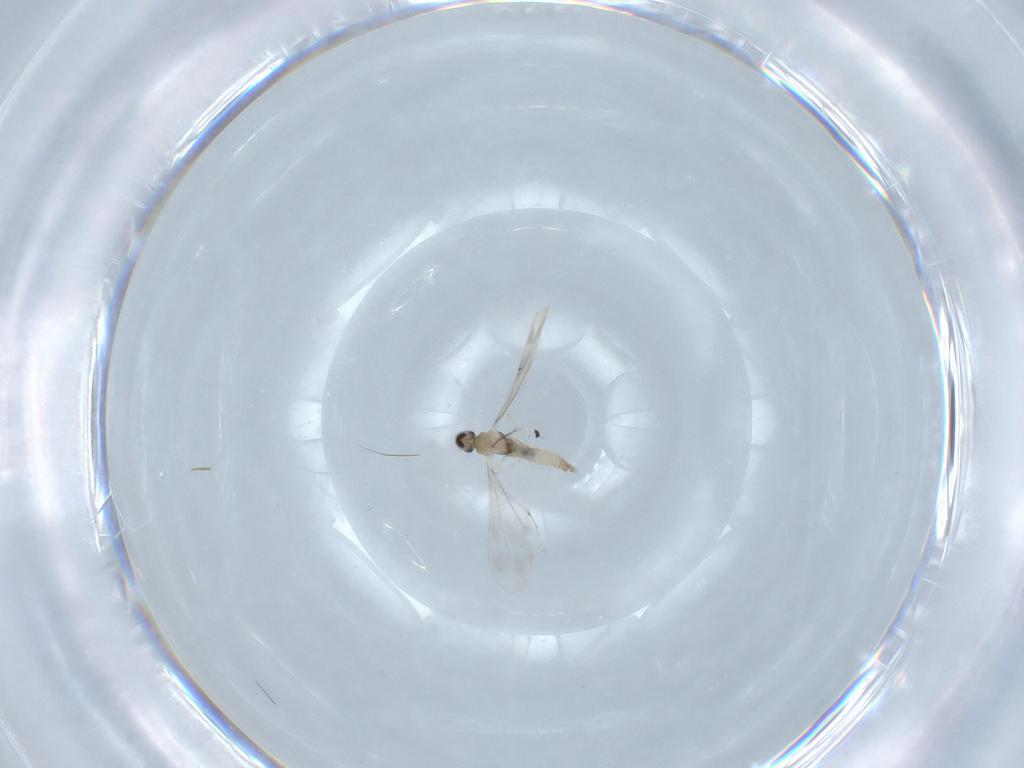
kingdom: Animalia
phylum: Arthropoda
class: Insecta
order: Diptera
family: Cecidomyiidae
